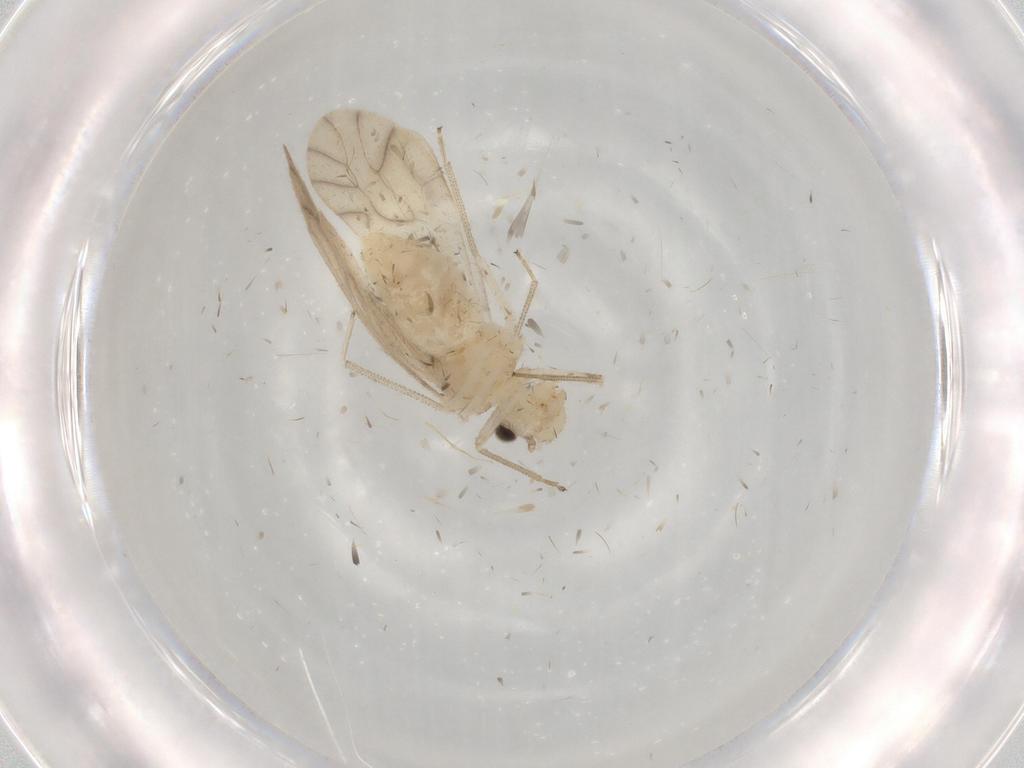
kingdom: Animalia
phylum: Arthropoda
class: Insecta
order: Psocodea
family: Caeciliusidae
